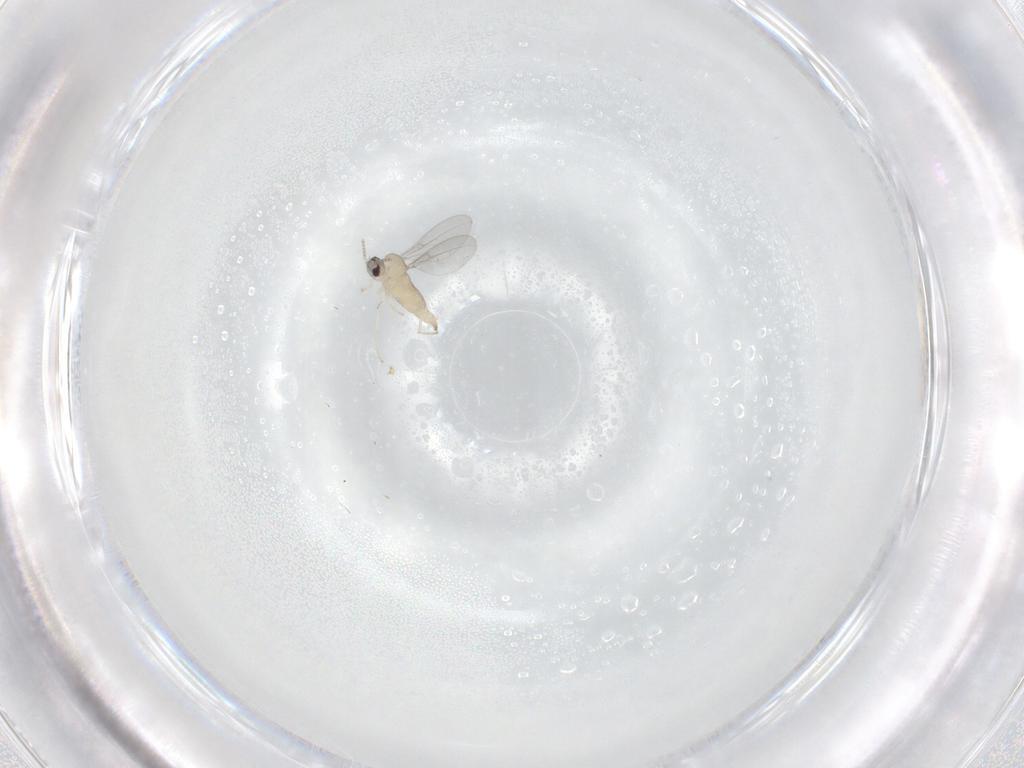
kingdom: Animalia
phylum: Arthropoda
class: Insecta
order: Diptera
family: Cecidomyiidae
